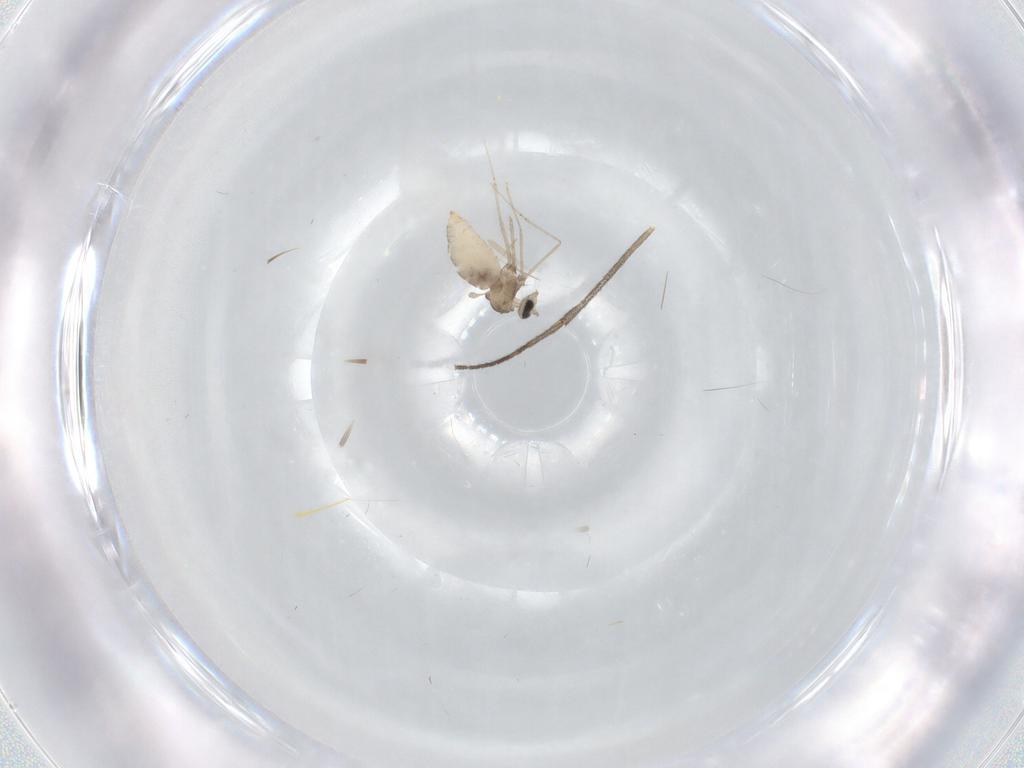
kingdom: Animalia
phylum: Arthropoda
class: Insecta
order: Diptera
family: Cecidomyiidae
